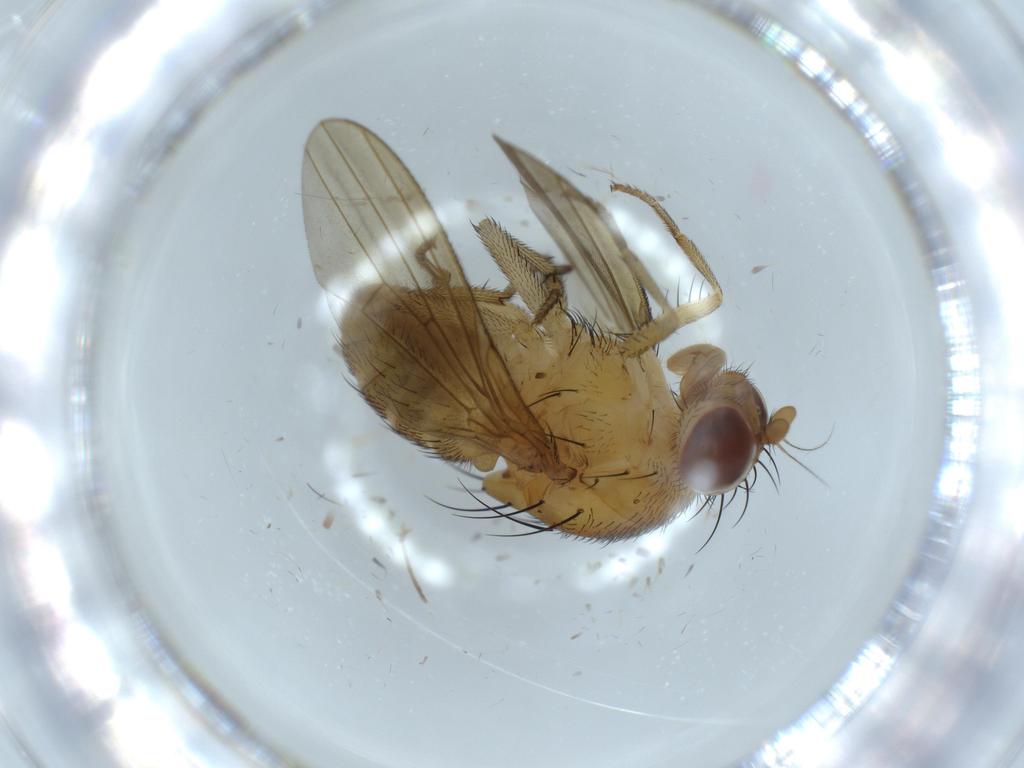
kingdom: Animalia
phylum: Arthropoda
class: Insecta
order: Diptera
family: Lauxaniidae
